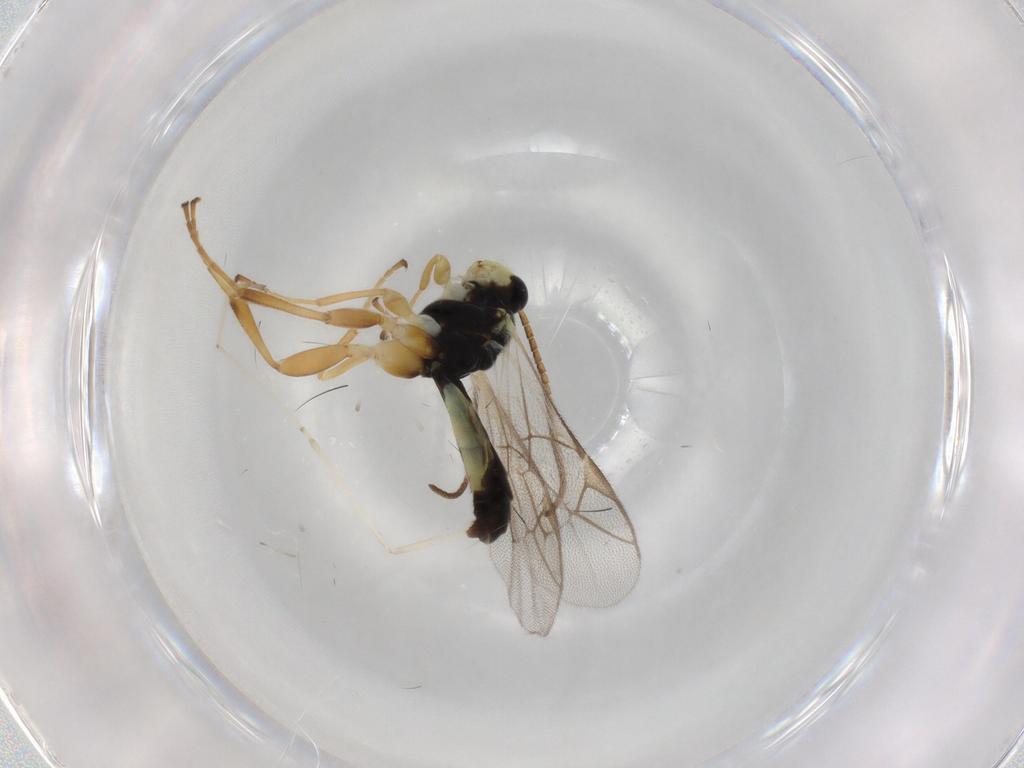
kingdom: Animalia
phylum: Arthropoda
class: Insecta
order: Hymenoptera
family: Ichneumonidae
